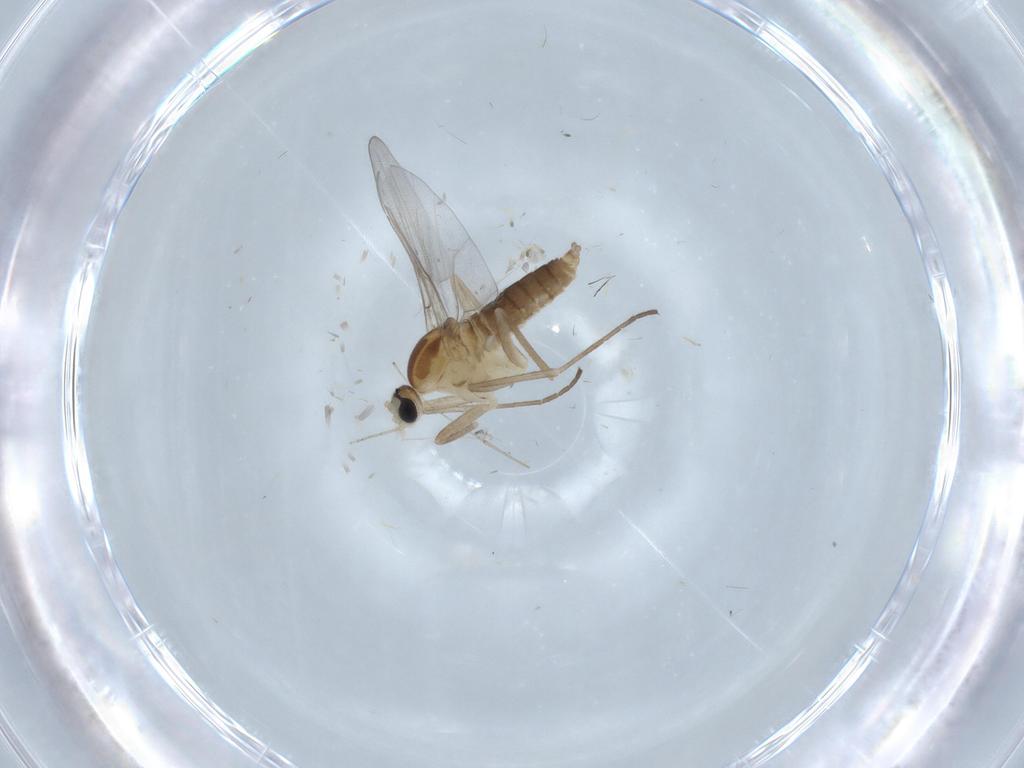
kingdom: Animalia
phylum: Arthropoda
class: Insecta
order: Diptera
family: Cecidomyiidae
